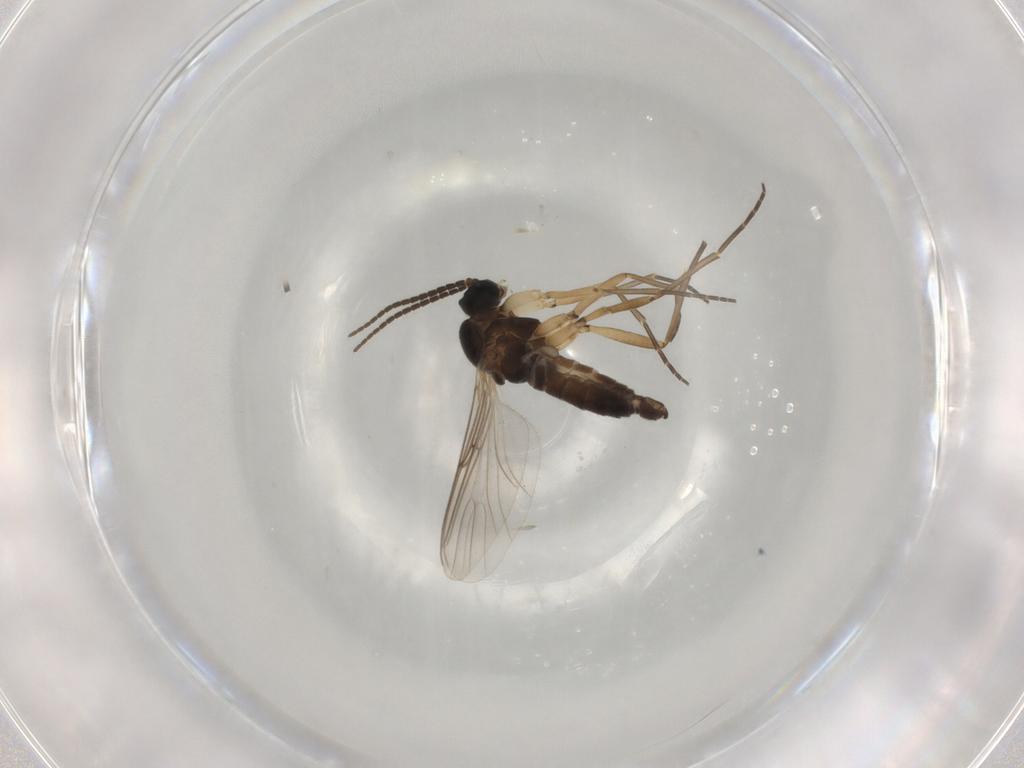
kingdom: Animalia
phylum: Arthropoda
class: Insecta
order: Diptera
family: Sciaridae
